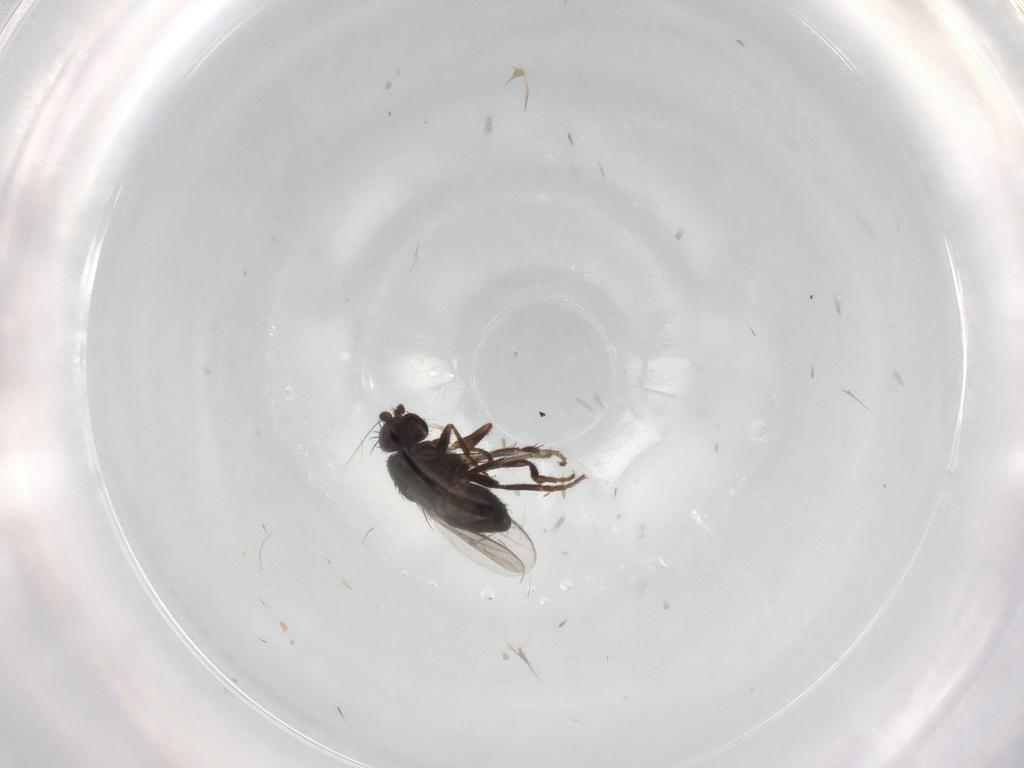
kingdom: Animalia
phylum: Arthropoda
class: Insecta
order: Diptera
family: Sphaeroceridae
